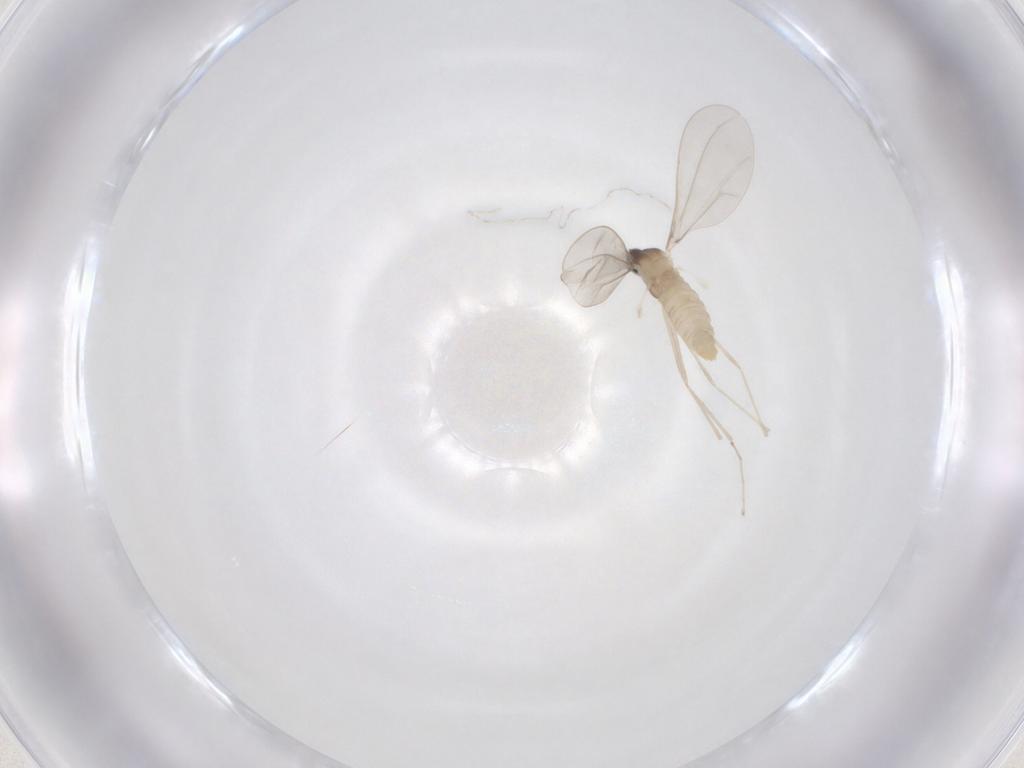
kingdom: Animalia
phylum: Arthropoda
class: Insecta
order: Diptera
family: Cecidomyiidae
